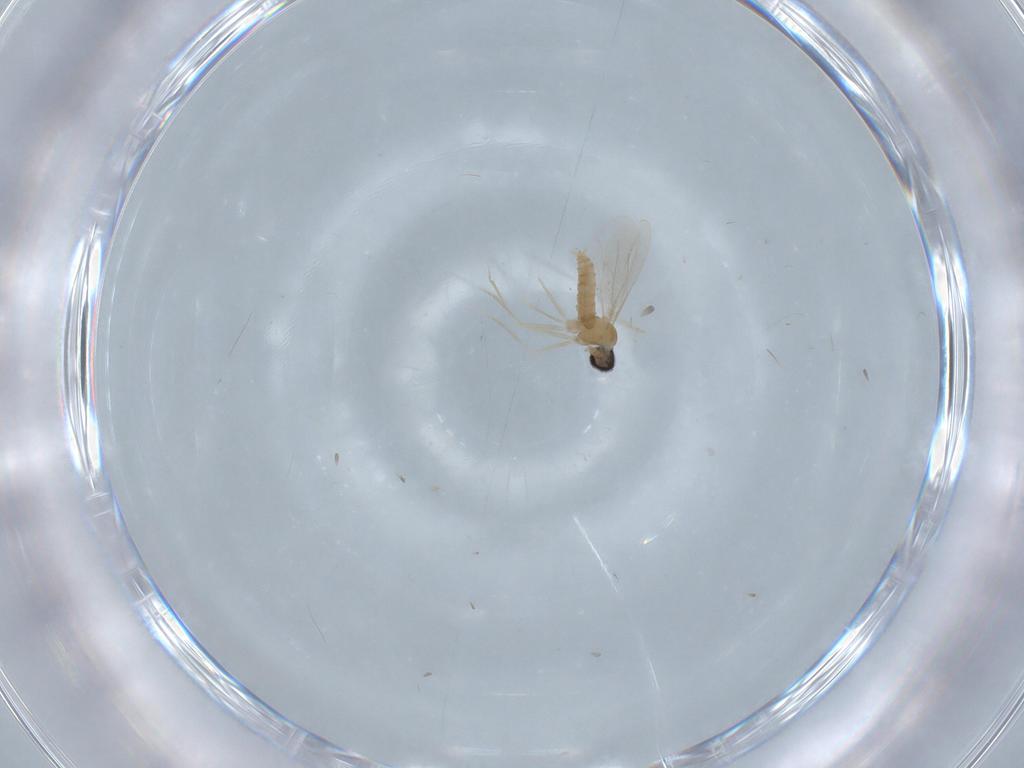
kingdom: Animalia
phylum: Arthropoda
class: Insecta
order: Diptera
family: Cecidomyiidae
